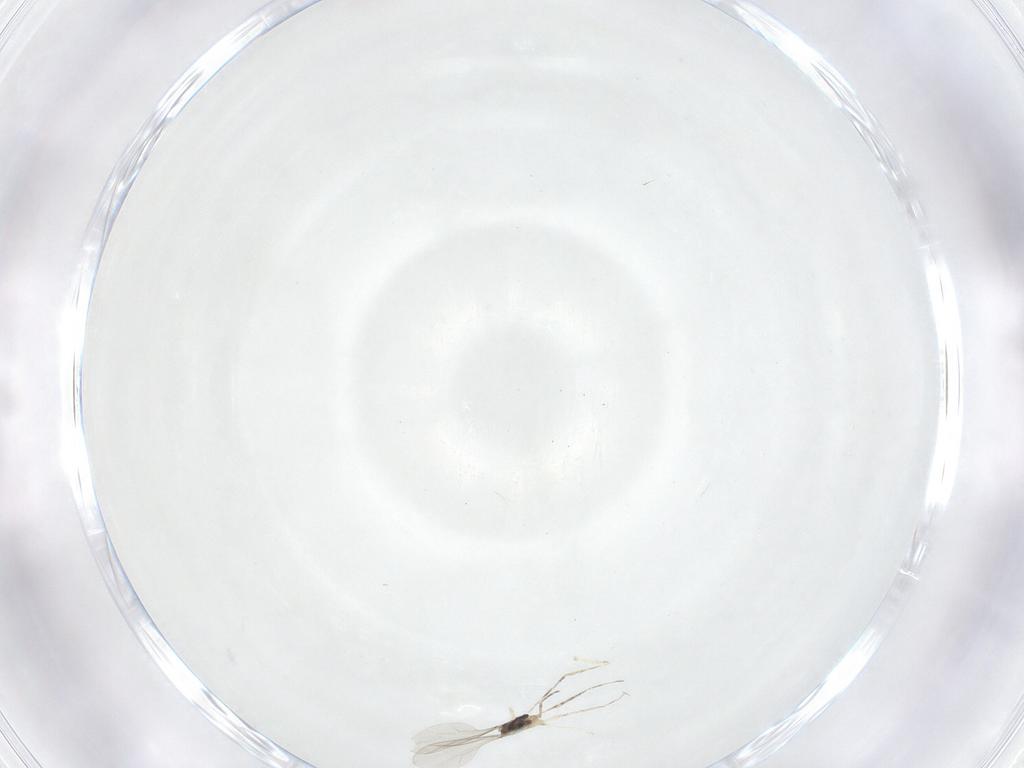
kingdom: Animalia
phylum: Arthropoda
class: Insecta
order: Diptera
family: Cecidomyiidae
